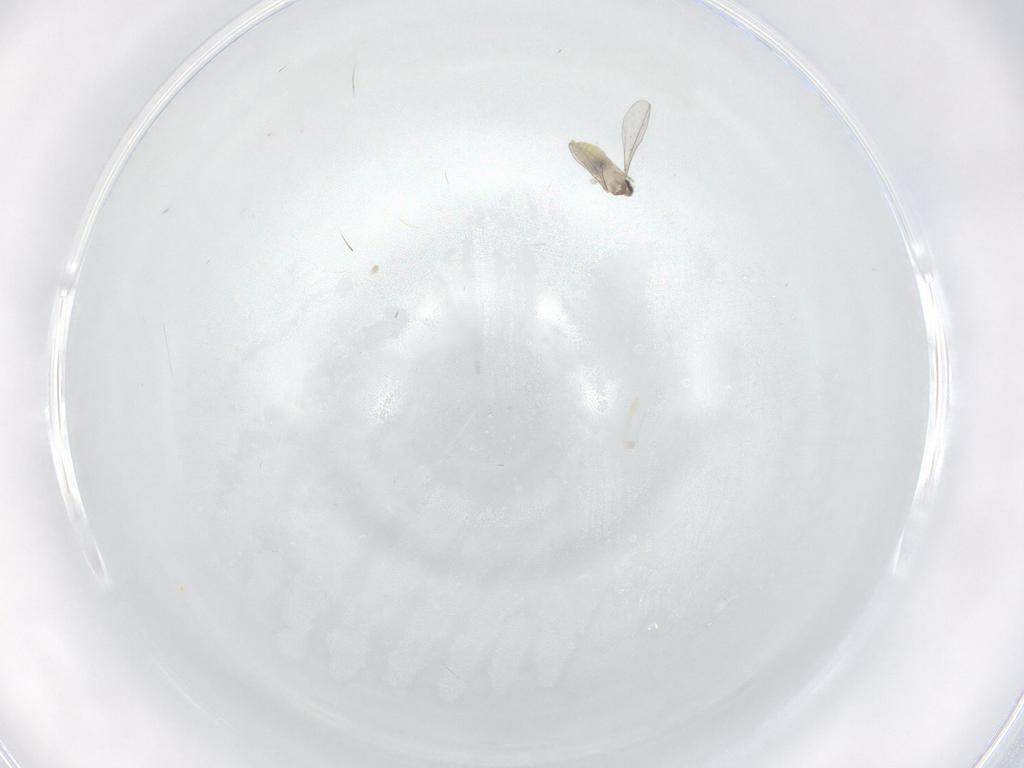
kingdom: Animalia
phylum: Arthropoda
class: Insecta
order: Diptera
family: Cecidomyiidae
